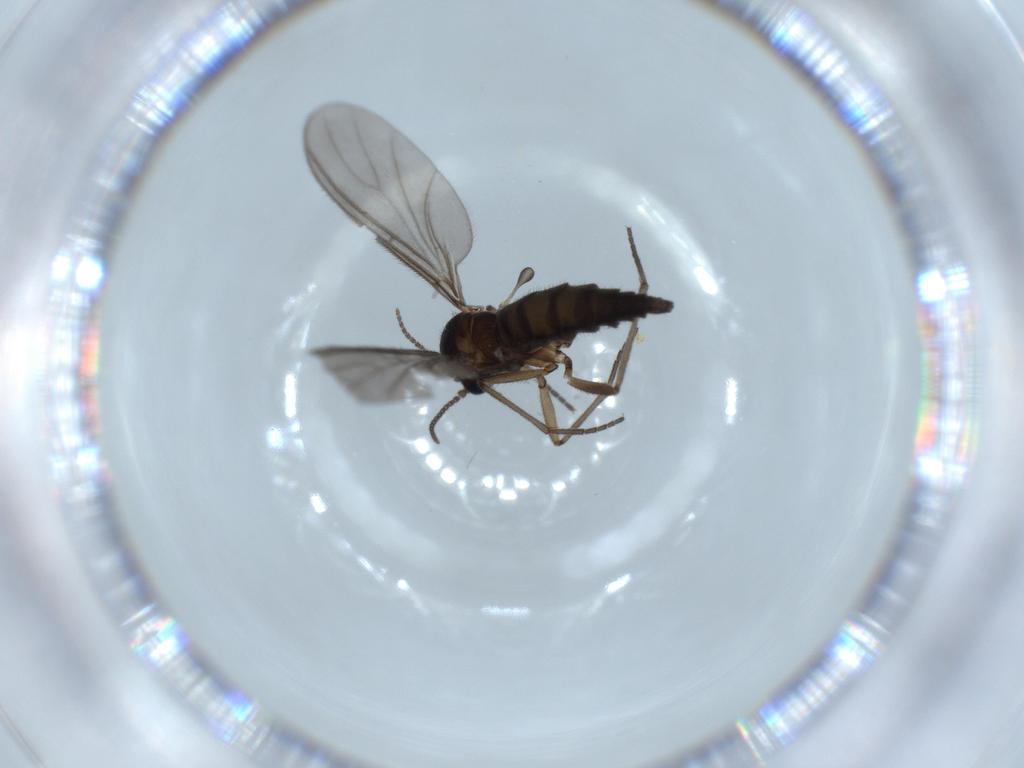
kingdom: Animalia
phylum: Arthropoda
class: Insecta
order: Diptera
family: Sciaridae
